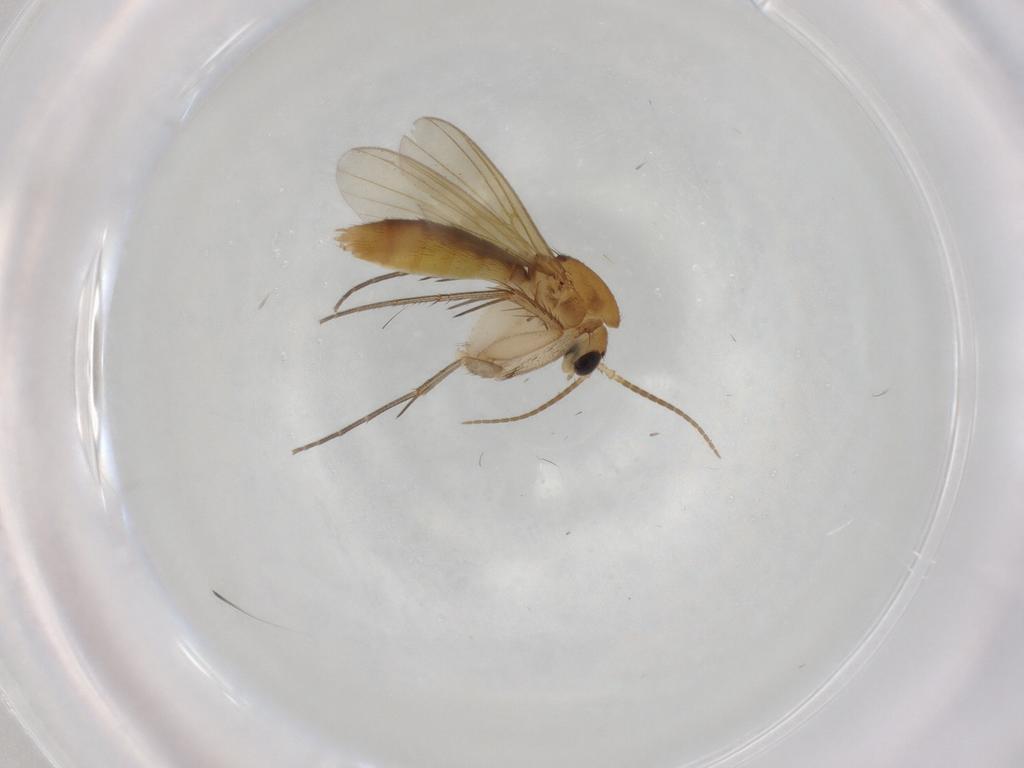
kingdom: Animalia
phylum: Arthropoda
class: Insecta
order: Diptera
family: Mycetophilidae
